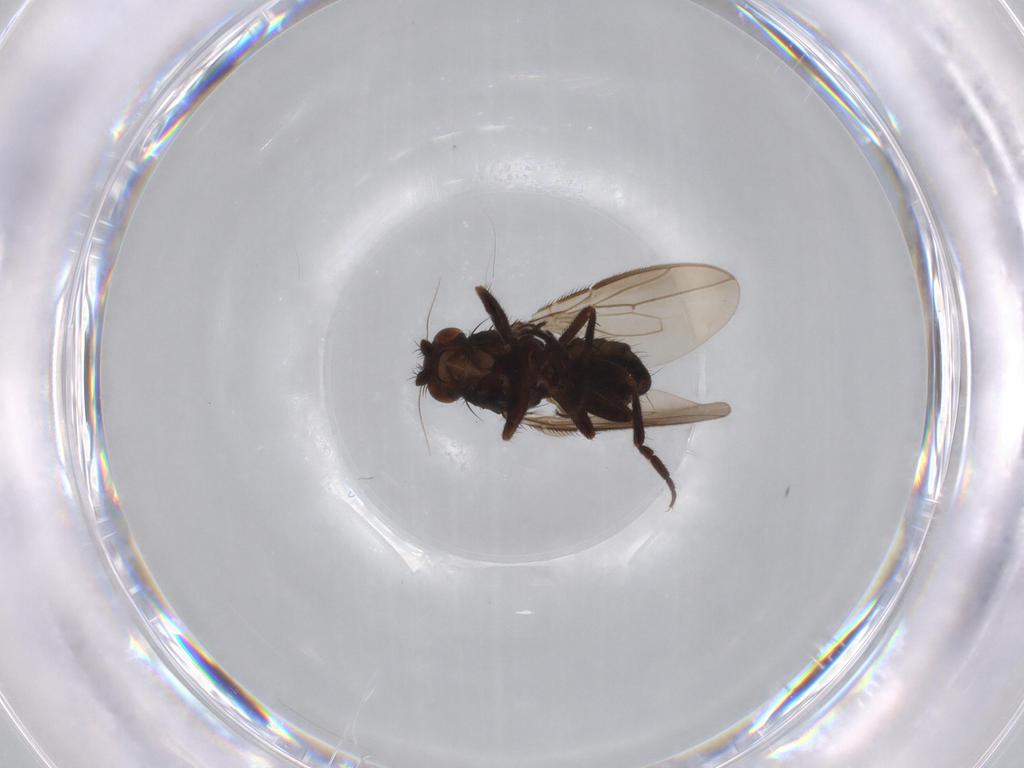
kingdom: Animalia
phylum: Arthropoda
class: Insecta
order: Diptera
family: Sphaeroceridae
